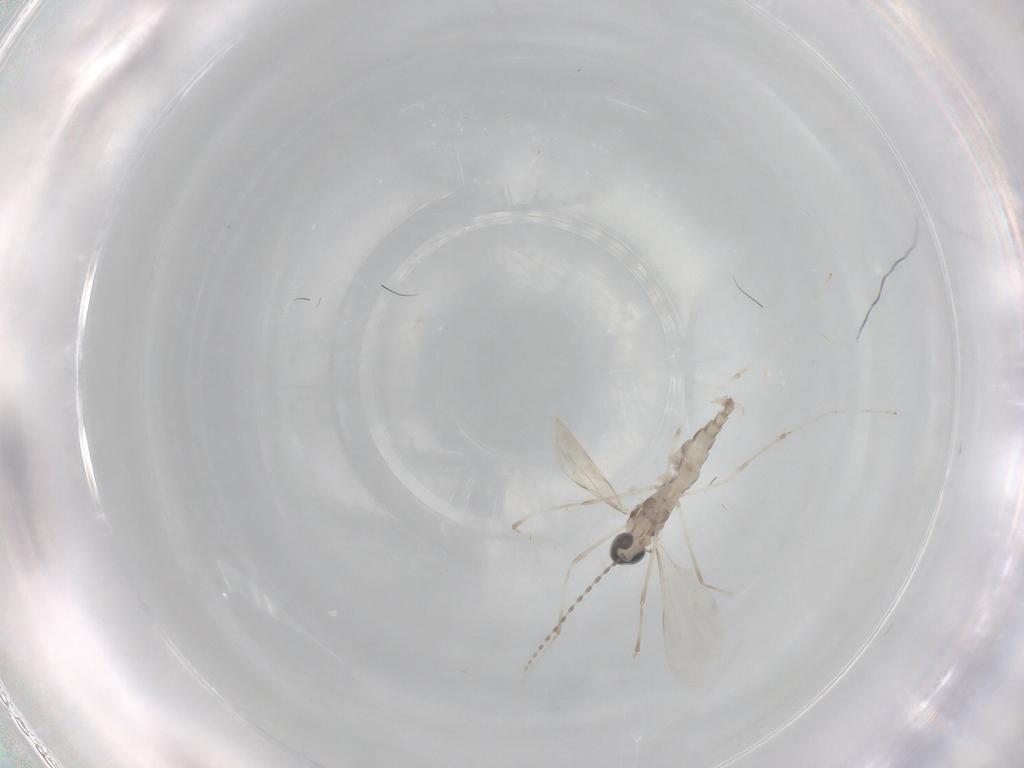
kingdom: Animalia
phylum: Arthropoda
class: Insecta
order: Diptera
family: Cecidomyiidae
